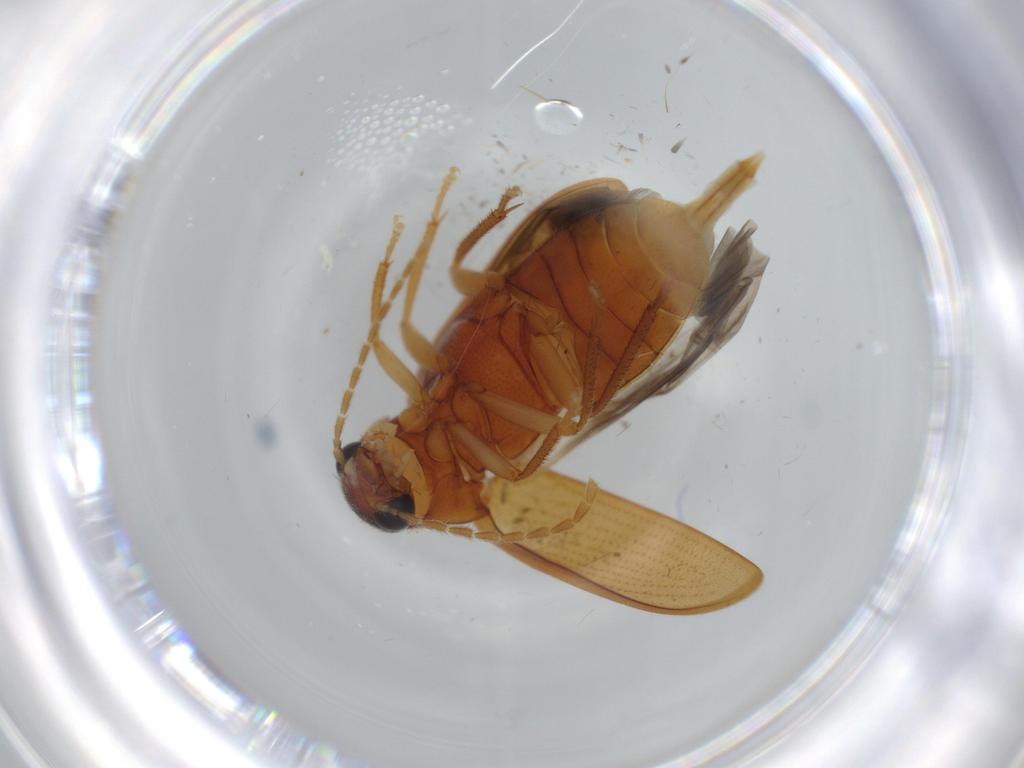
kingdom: Animalia
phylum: Arthropoda
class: Insecta
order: Coleoptera
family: Ptilodactylidae
